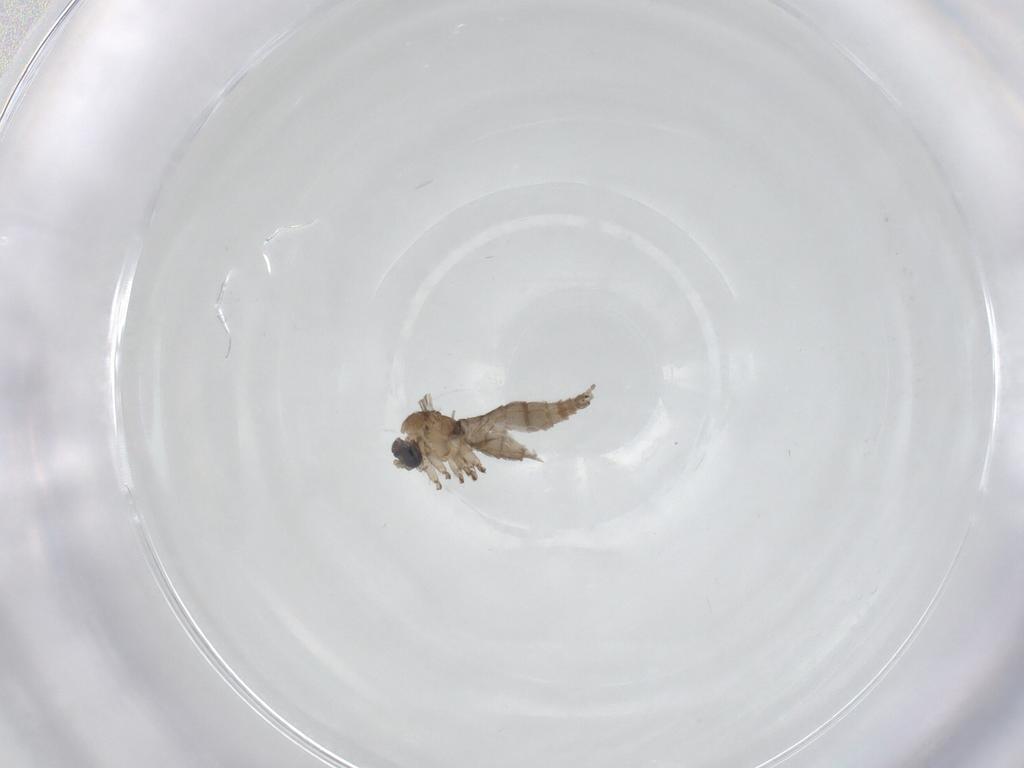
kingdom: Animalia
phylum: Arthropoda
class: Insecta
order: Diptera
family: Sciaridae
